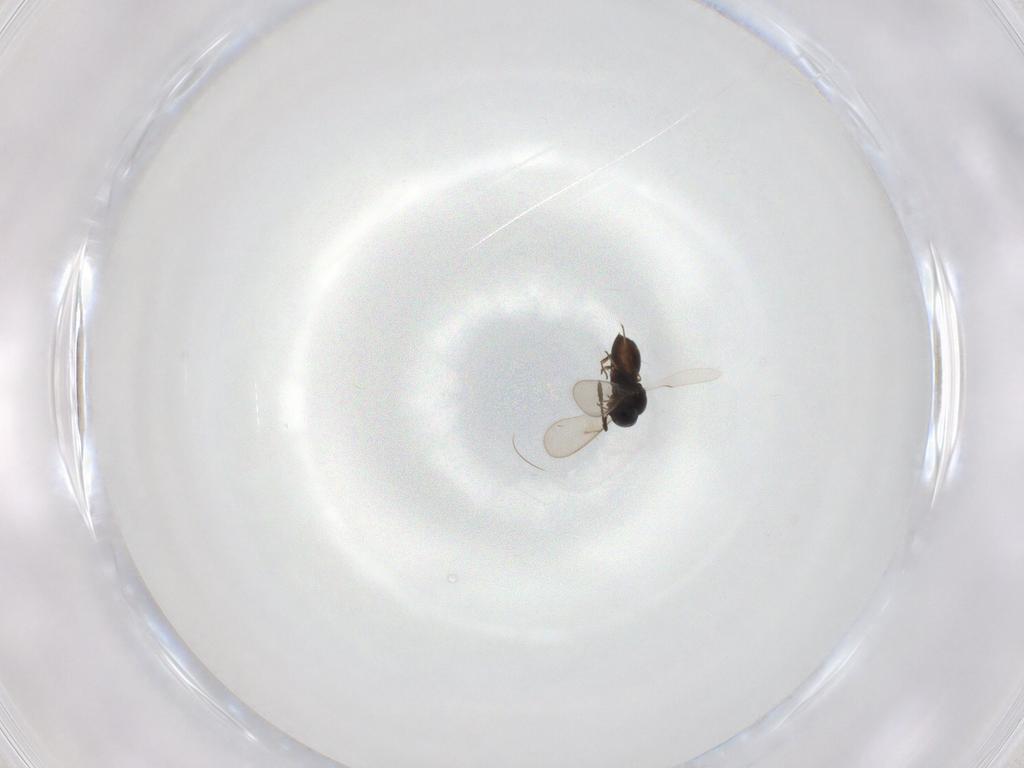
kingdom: Animalia
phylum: Arthropoda
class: Insecta
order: Hymenoptera
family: Scelionidae
